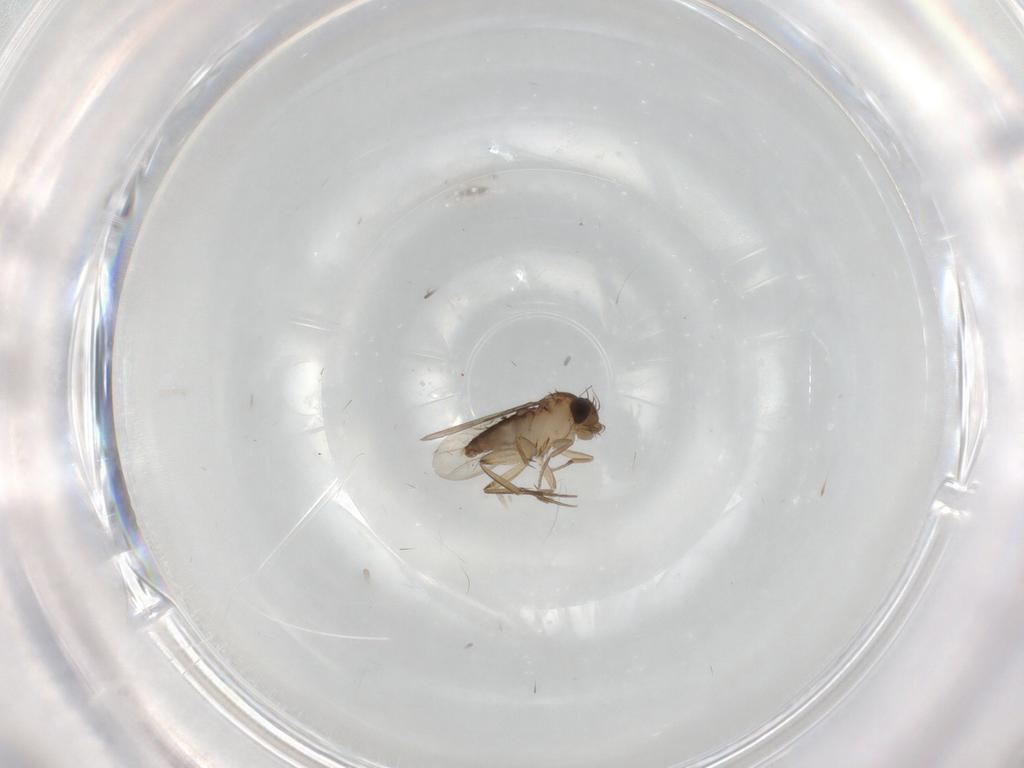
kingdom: Animalia
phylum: Arthropoda
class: Insecta
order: Diptera
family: Phoridae
